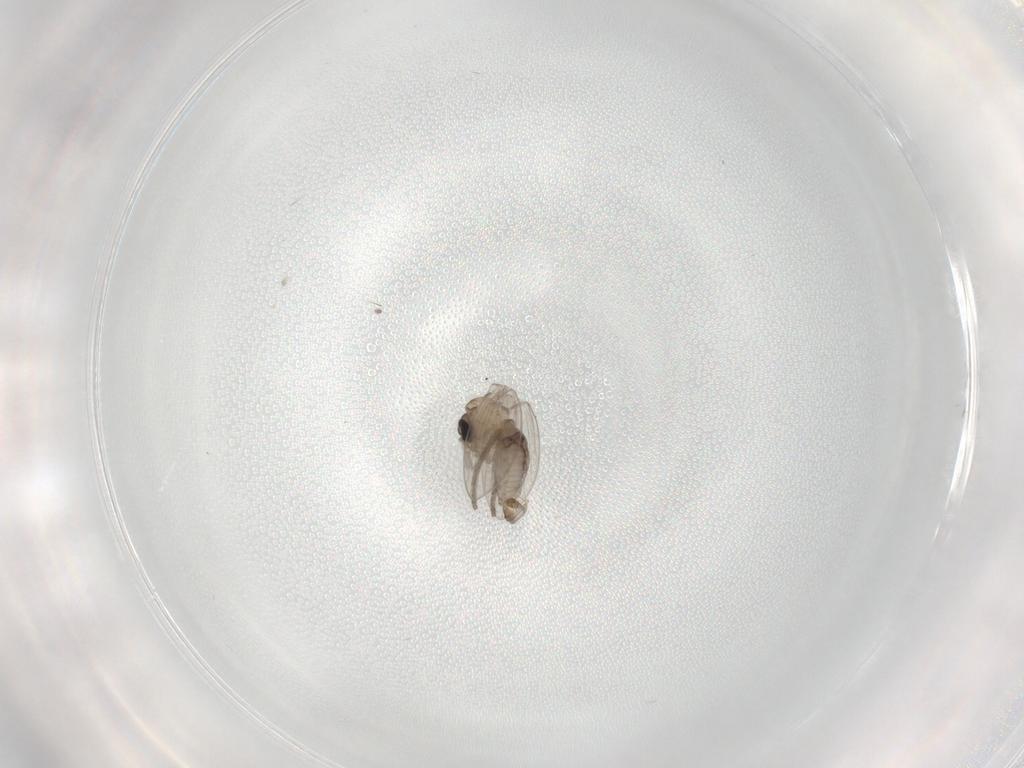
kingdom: Animalia
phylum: Arthropoda
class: Insecta
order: Diptera
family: Psychodidae
